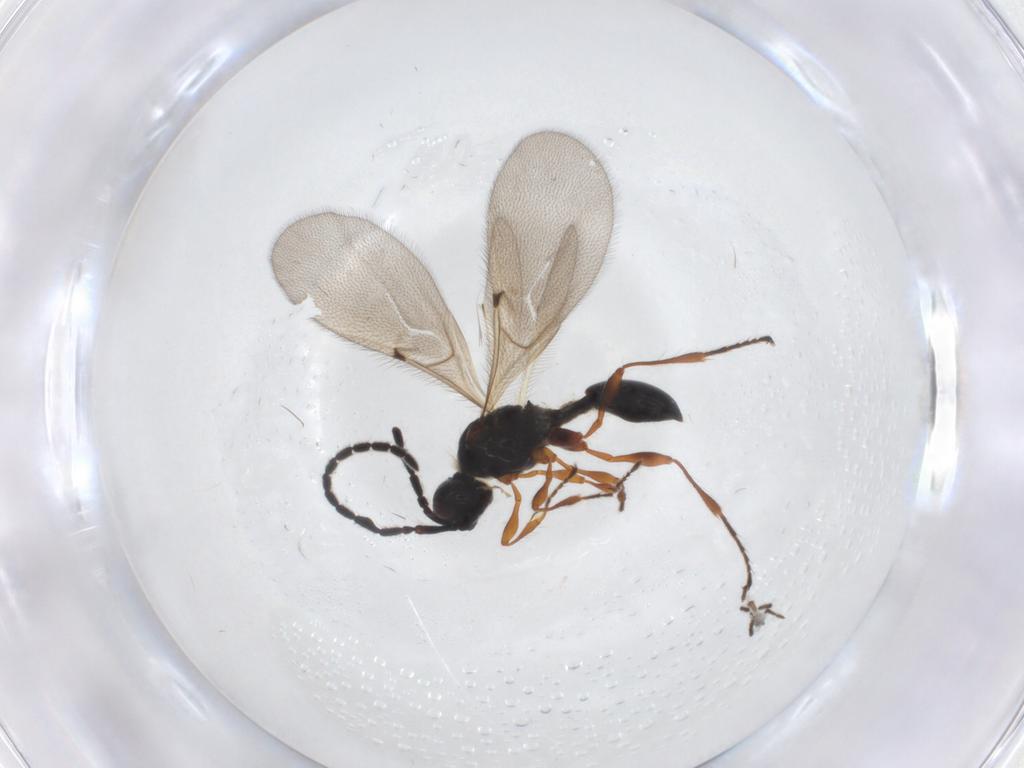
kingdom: Animalia
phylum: Arthropoda
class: Insecta
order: Hymenoptera
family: Diapriidae
